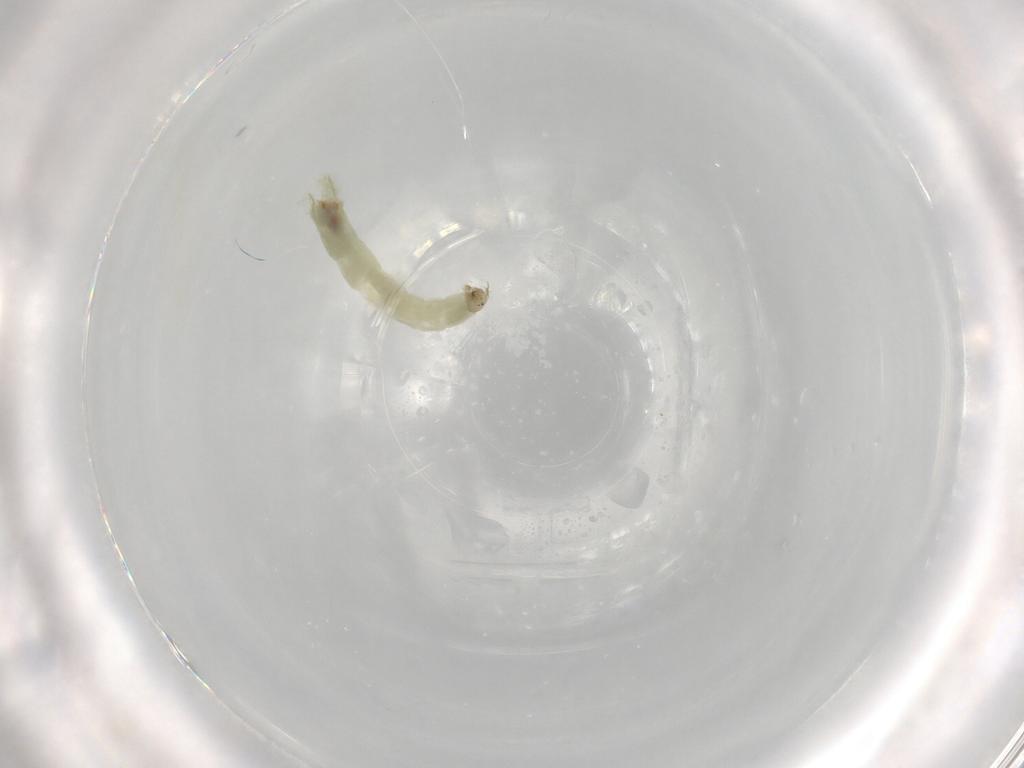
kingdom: Animalia
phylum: Arthropoda
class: Insecta
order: Diptera
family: Chironomidae
